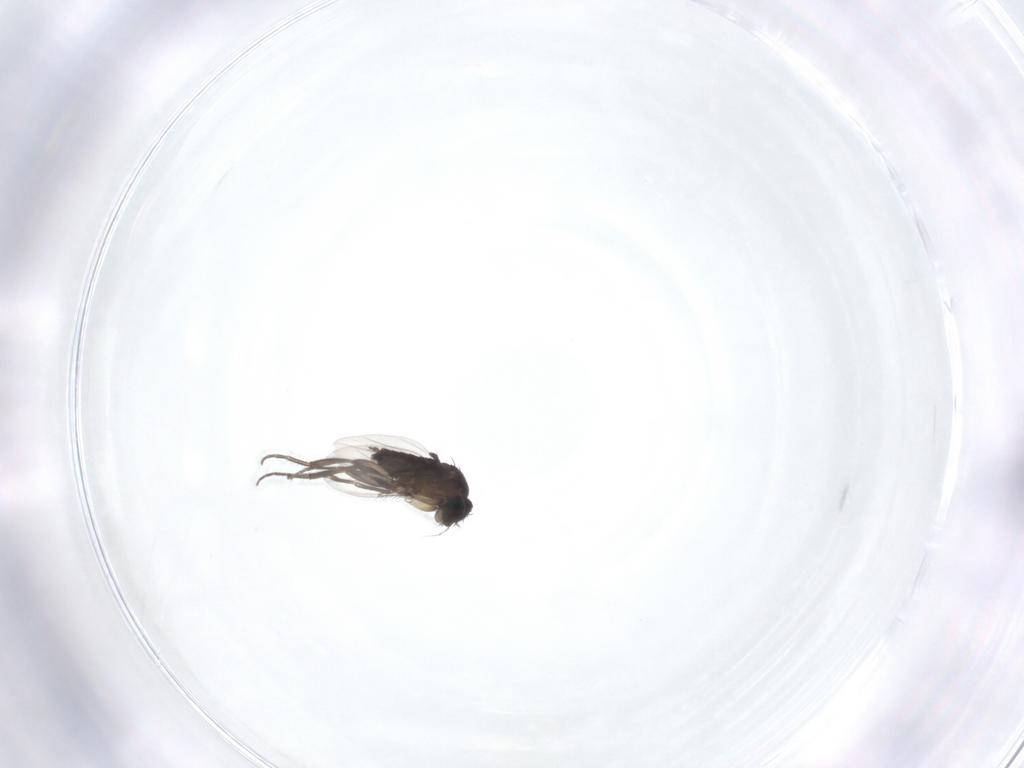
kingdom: Animalia
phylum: Arthropoda
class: Insecta
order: Diptera
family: Phoridae
